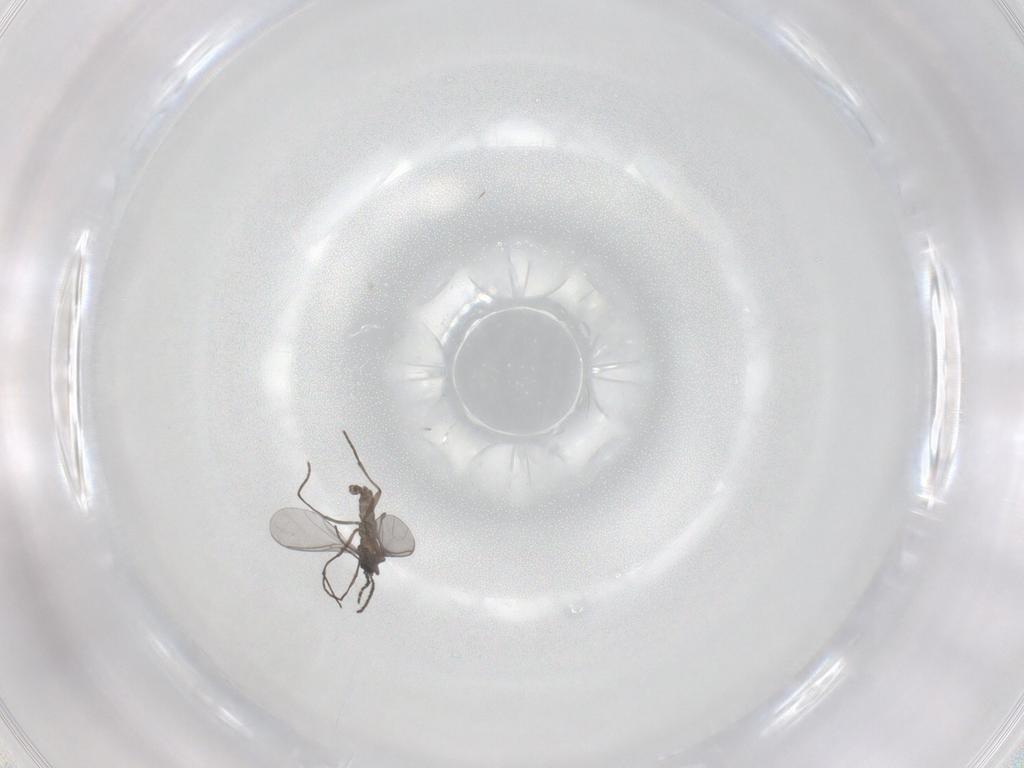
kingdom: Animalia
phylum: Arthropoda
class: Insecta
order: Diptera
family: Sciaridae
